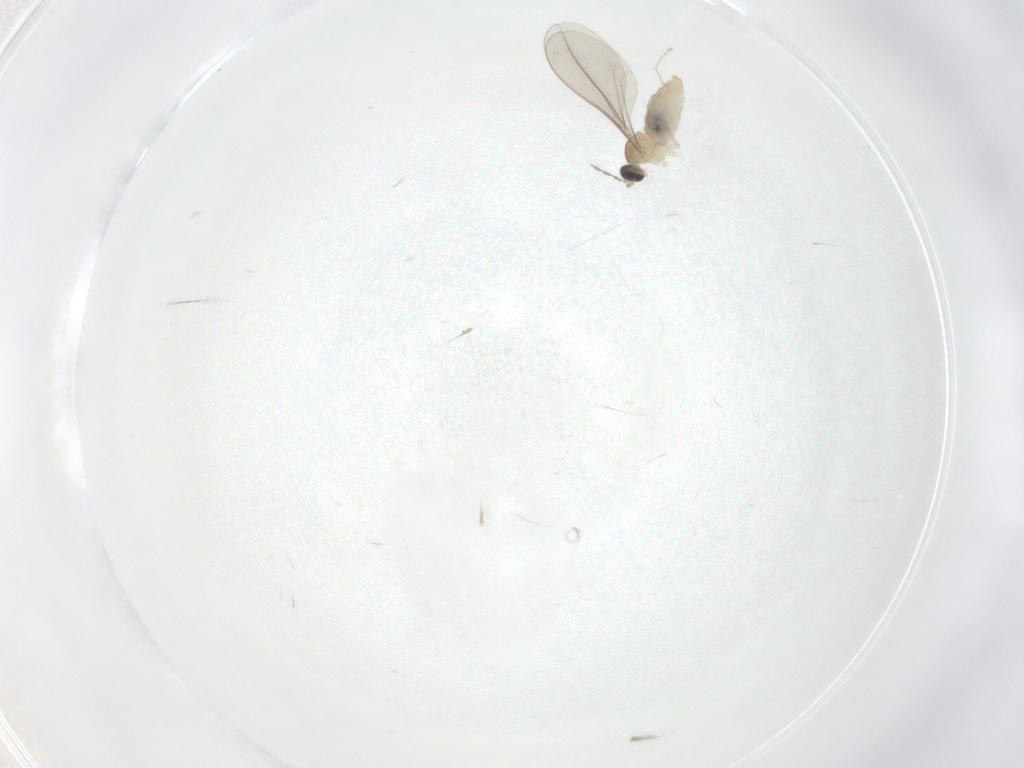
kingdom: Animalia
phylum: Arthropoda
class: Insecta
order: Diptera
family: Cecidomyiidae
